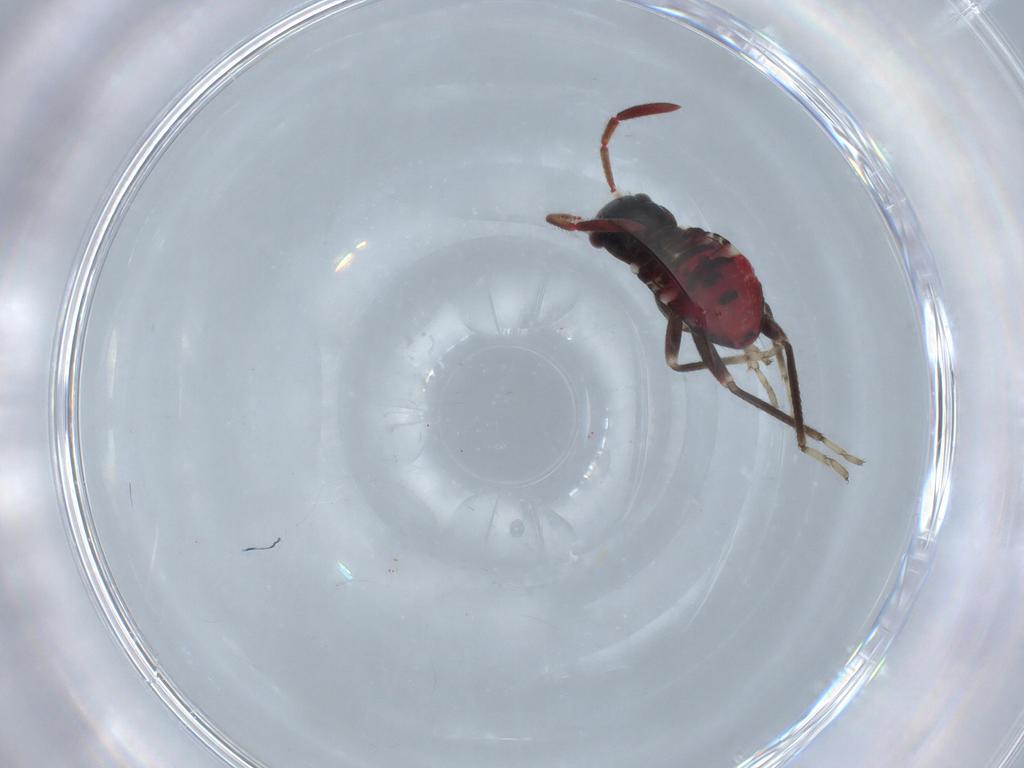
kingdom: Animalia
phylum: Arthropoda
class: Insecta
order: Hemiptera
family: Rhyparochromidae
